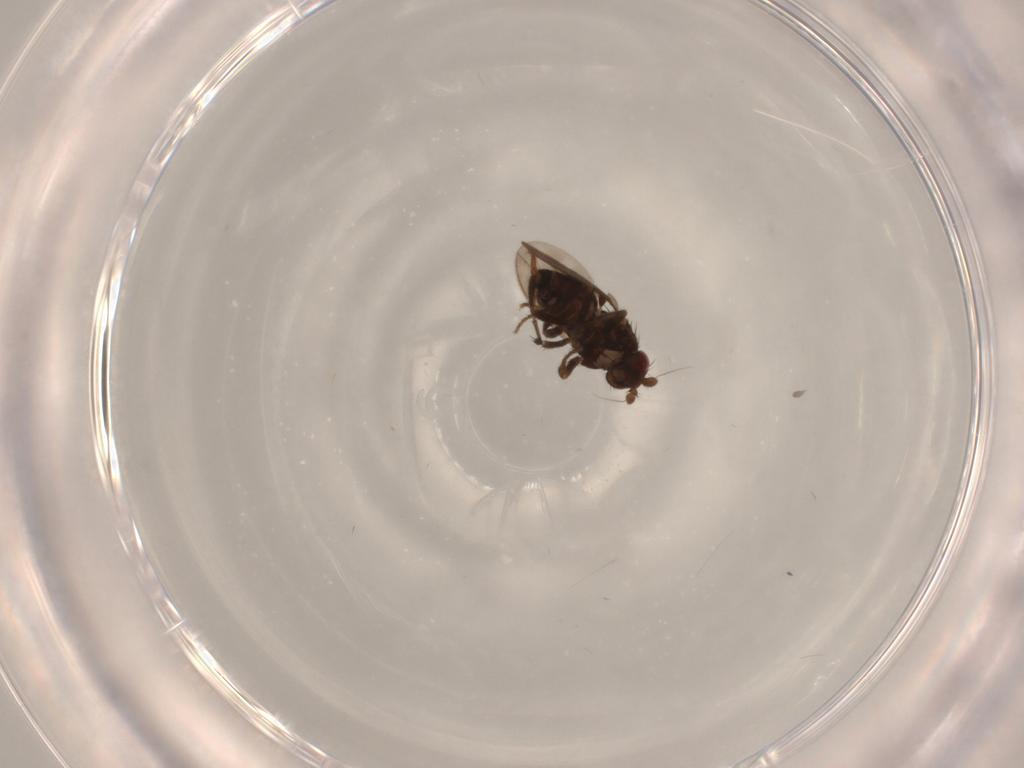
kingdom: Animalia
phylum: Arthropoda
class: Insecta
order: Diptera
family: Sphaeroceridae
